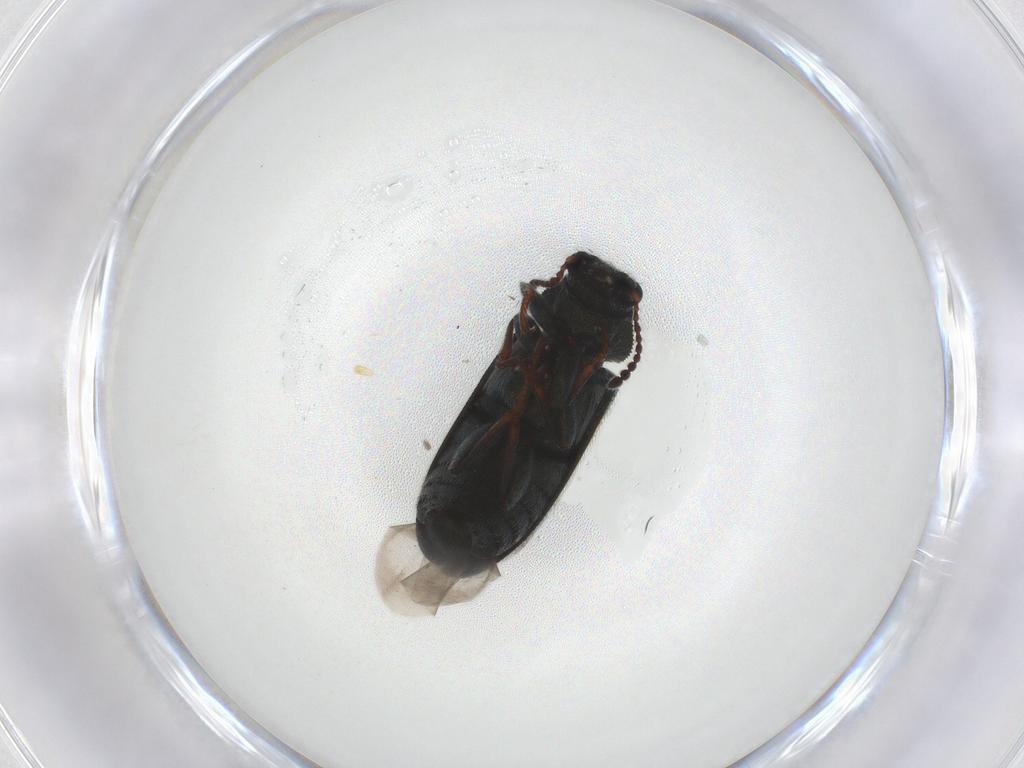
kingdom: Animalia
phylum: Arthropoda
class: Insecta
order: Coleoptera
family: Melyridae
